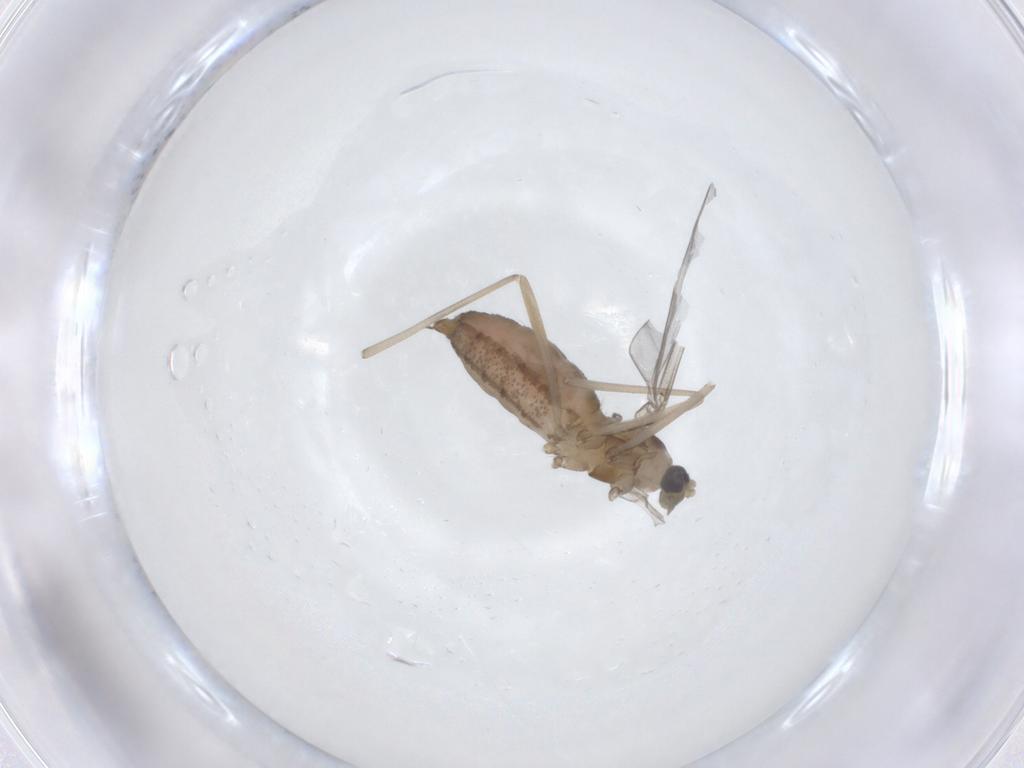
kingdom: Animalia
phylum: Arthropoda
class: Insecta
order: Diptera
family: Cecidomyiidae
